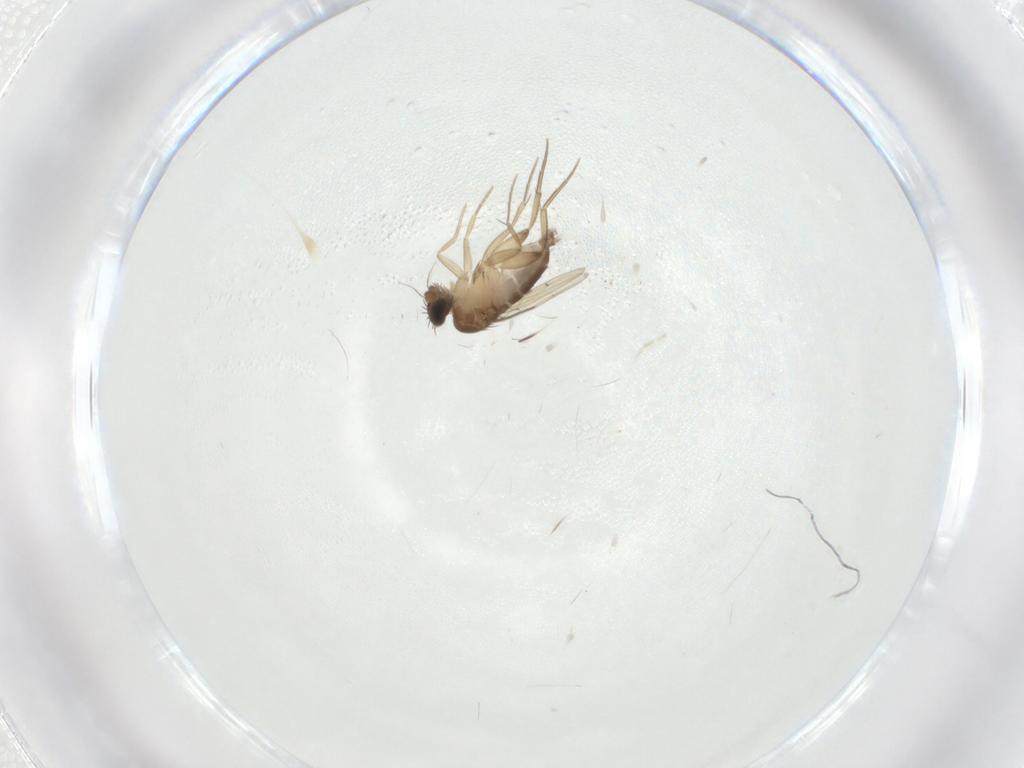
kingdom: Animalia
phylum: Arthropoda
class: Insecta
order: Diptera
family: Phoridae
